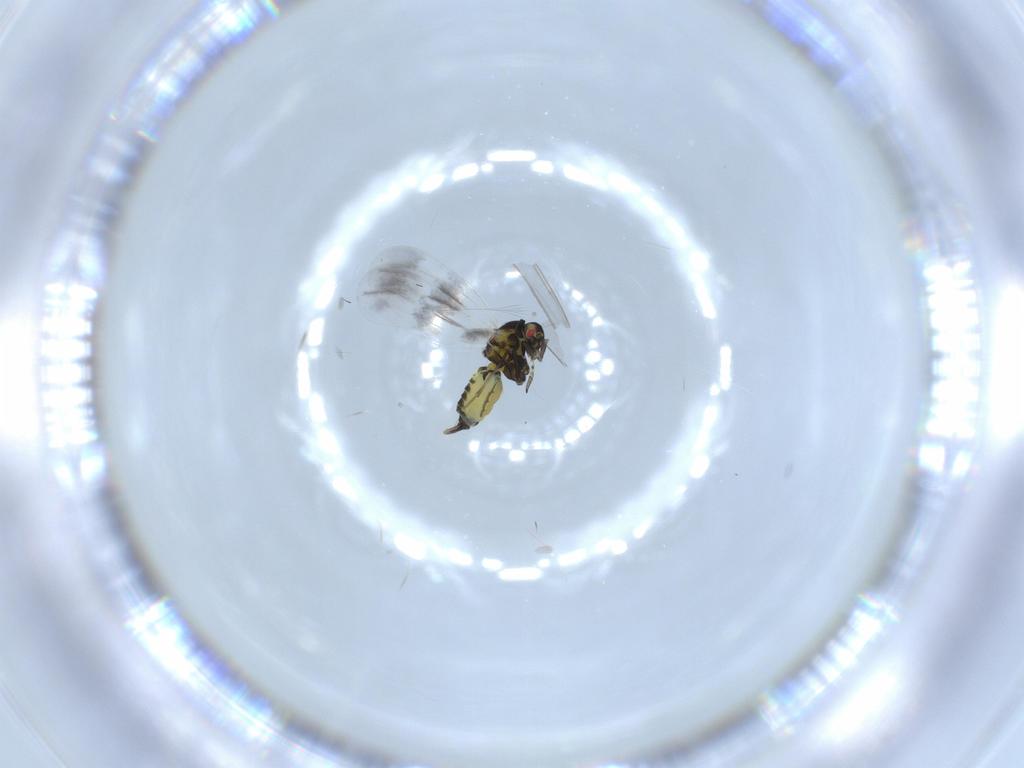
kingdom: Animalia
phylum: Arthropoda
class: Insecta
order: Hemiptera
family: Aleyrodidae
